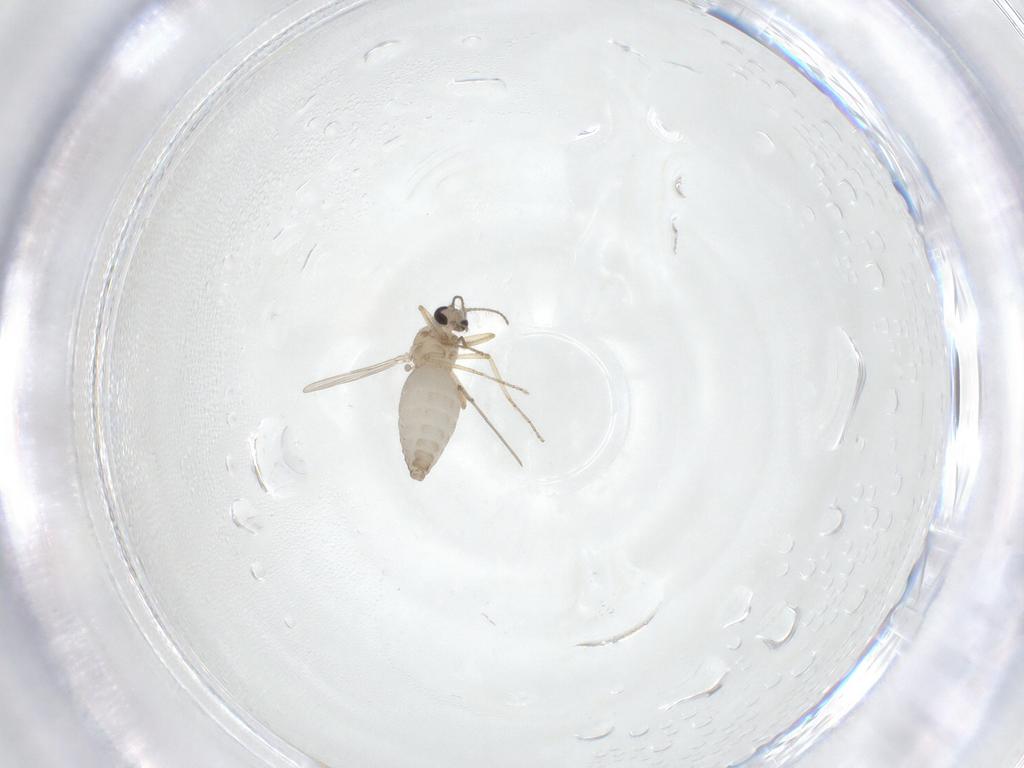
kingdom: Animalia
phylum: Arthropoda
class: Insecta
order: Diptera
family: Ceratopogonidae
